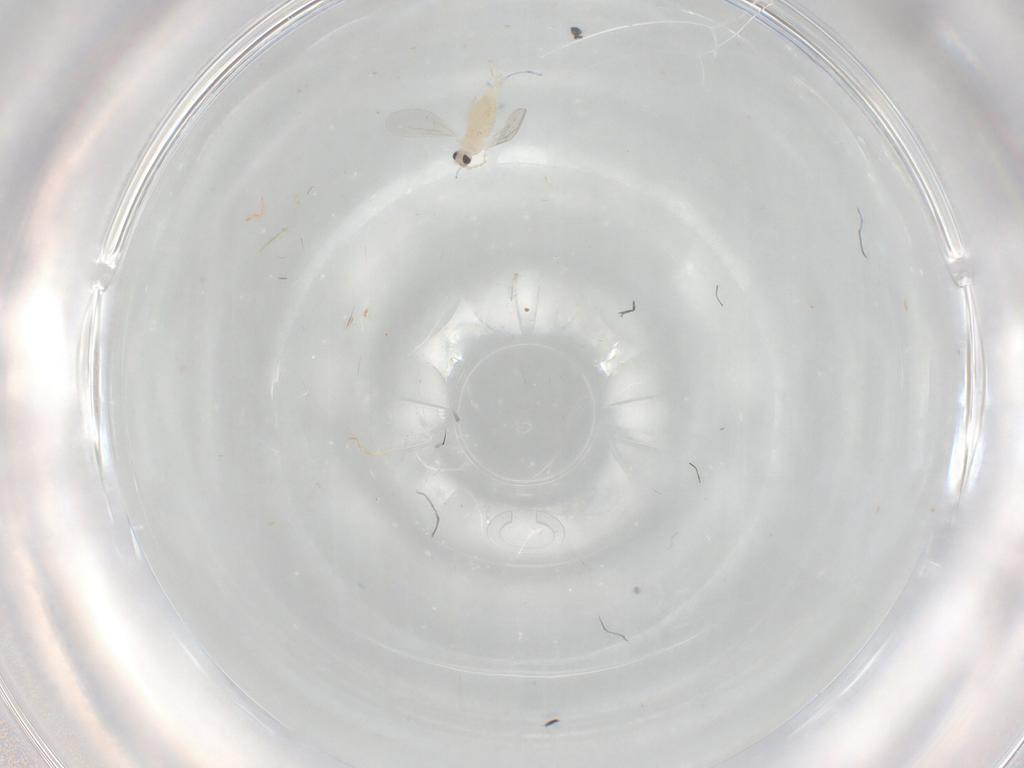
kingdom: Animalia
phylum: Arthropoda
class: Insecta
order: Diptera
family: Cecidomyiidae
